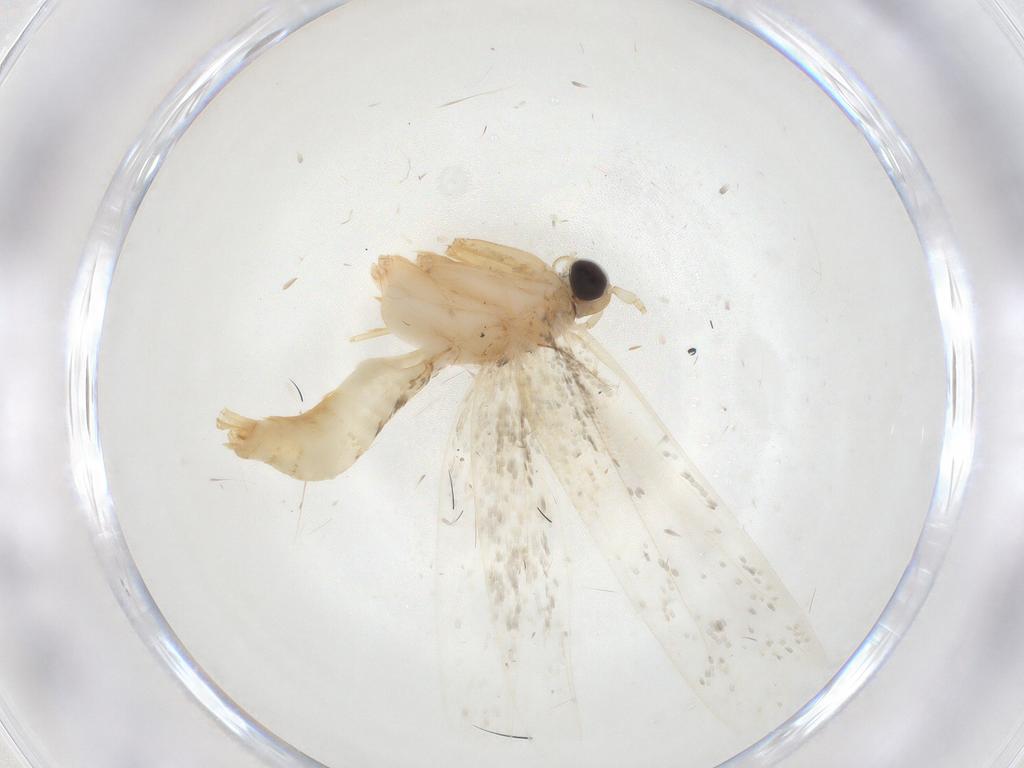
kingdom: Animalia
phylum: Arthropoda
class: Insecta
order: Lepidoptera
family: Tineidae
